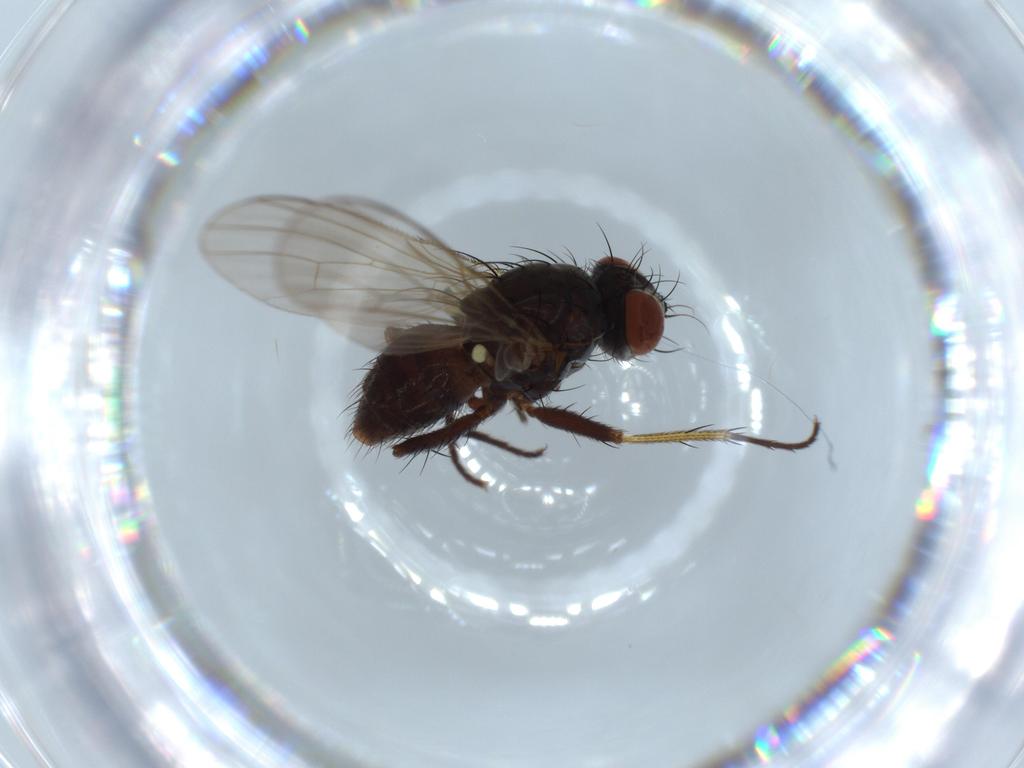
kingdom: Animalia
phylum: Arthropoda
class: Insecta
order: Diptera
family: Muscidae
